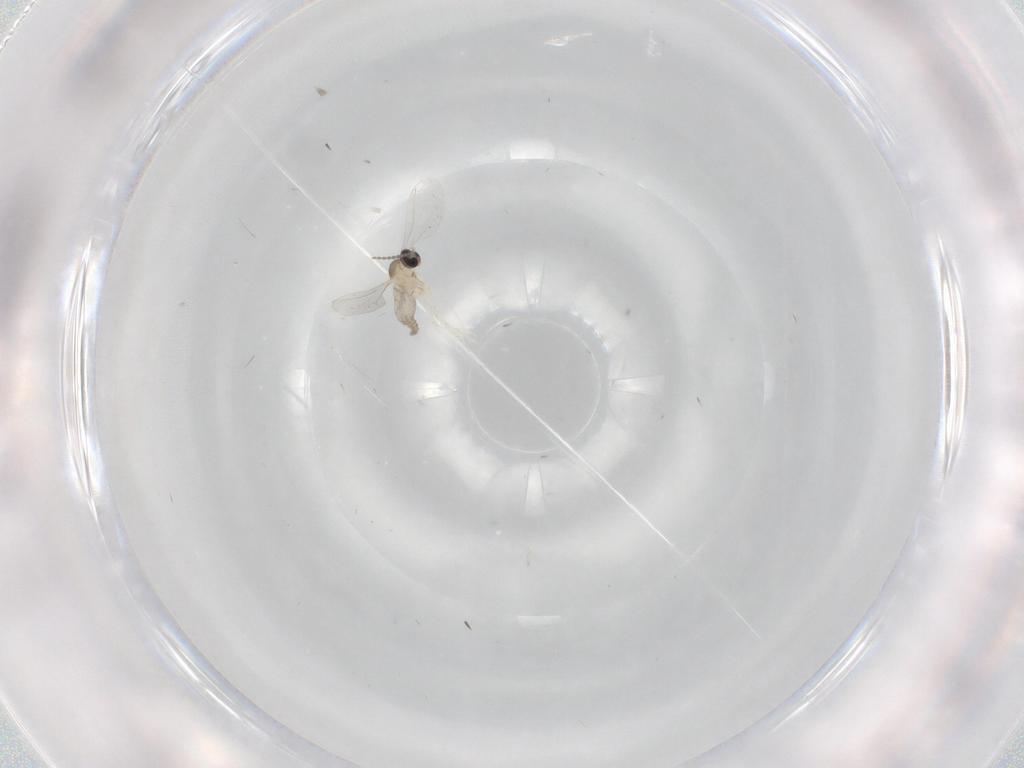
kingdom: Animalia
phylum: Arthropoda
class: Insecta
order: Diptera
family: Cecidomyiidae
